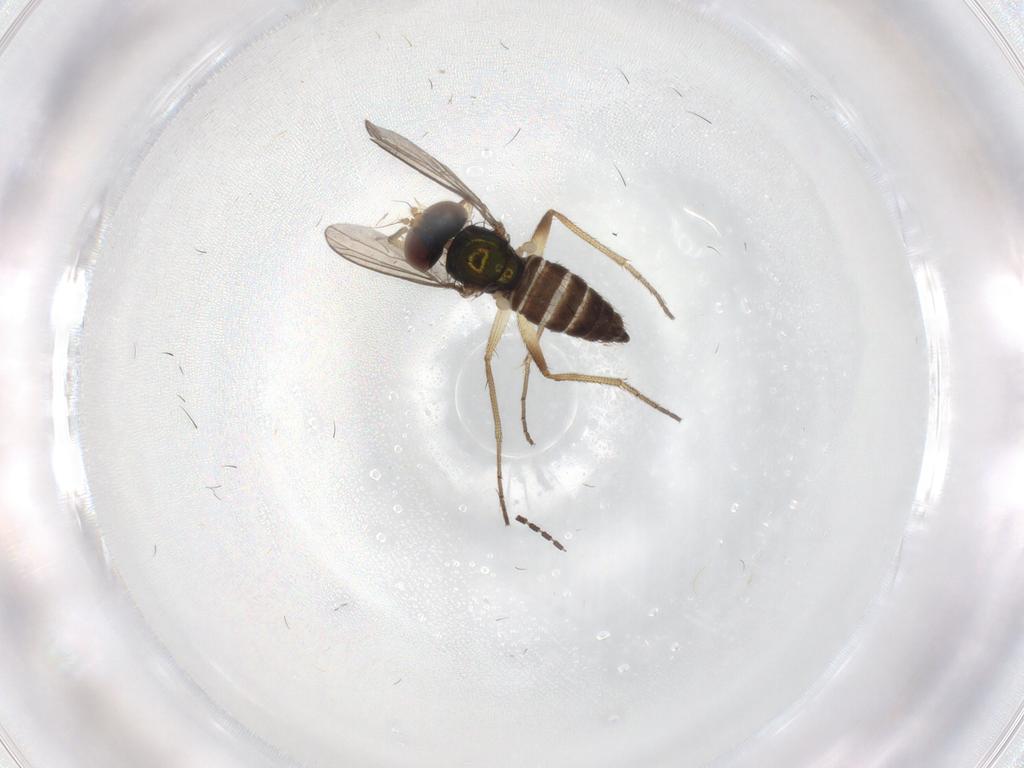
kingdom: Animalia
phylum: Arthropoda
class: Insecta
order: Diptera
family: Dolichopodidae
